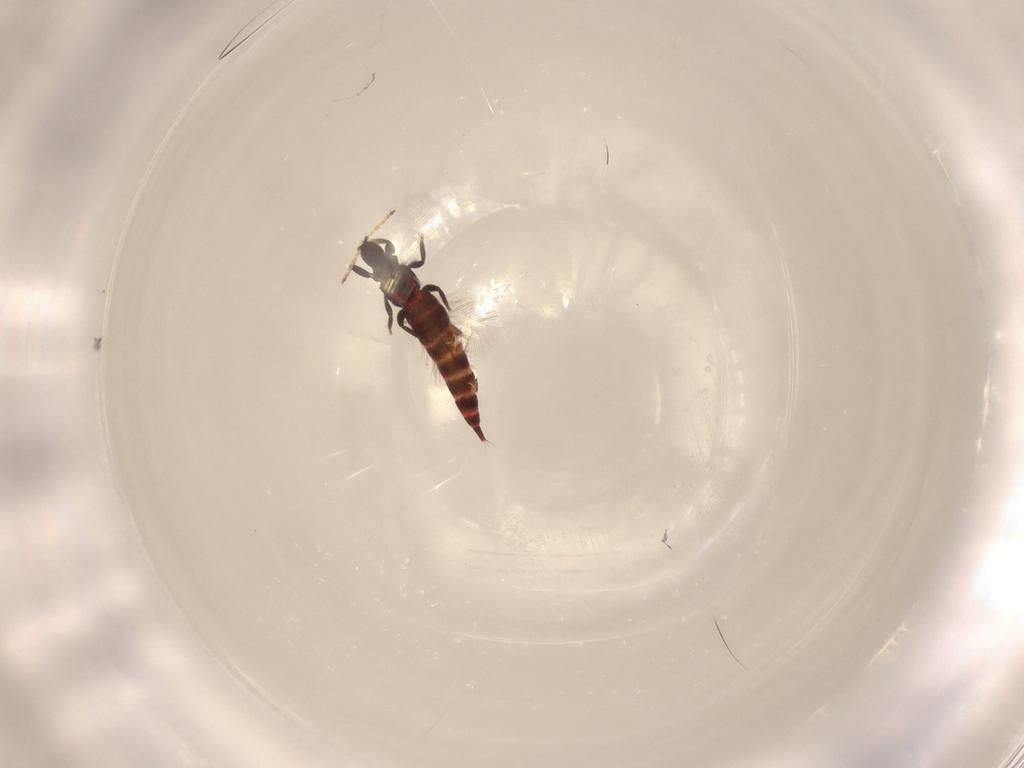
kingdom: Animalia
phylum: Arthropoda
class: Insecta
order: Thysanoptera
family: Phlaeothripidae
